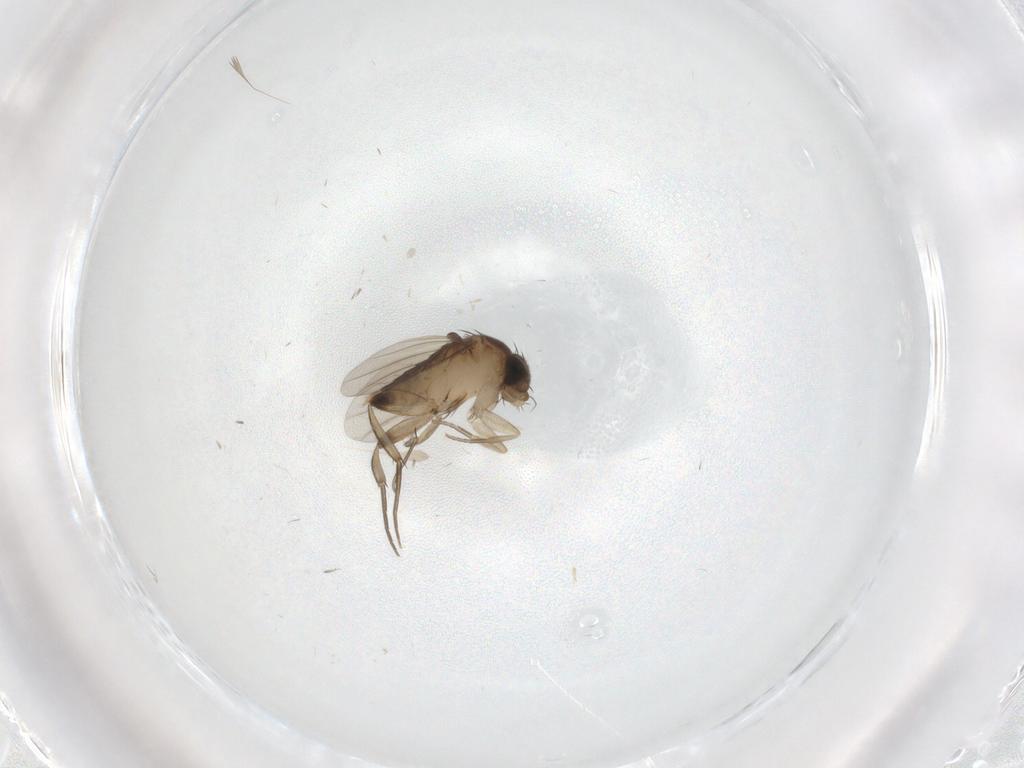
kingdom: Animalia
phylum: Arthropoda
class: Insecta
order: Diptera
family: Phoridae
